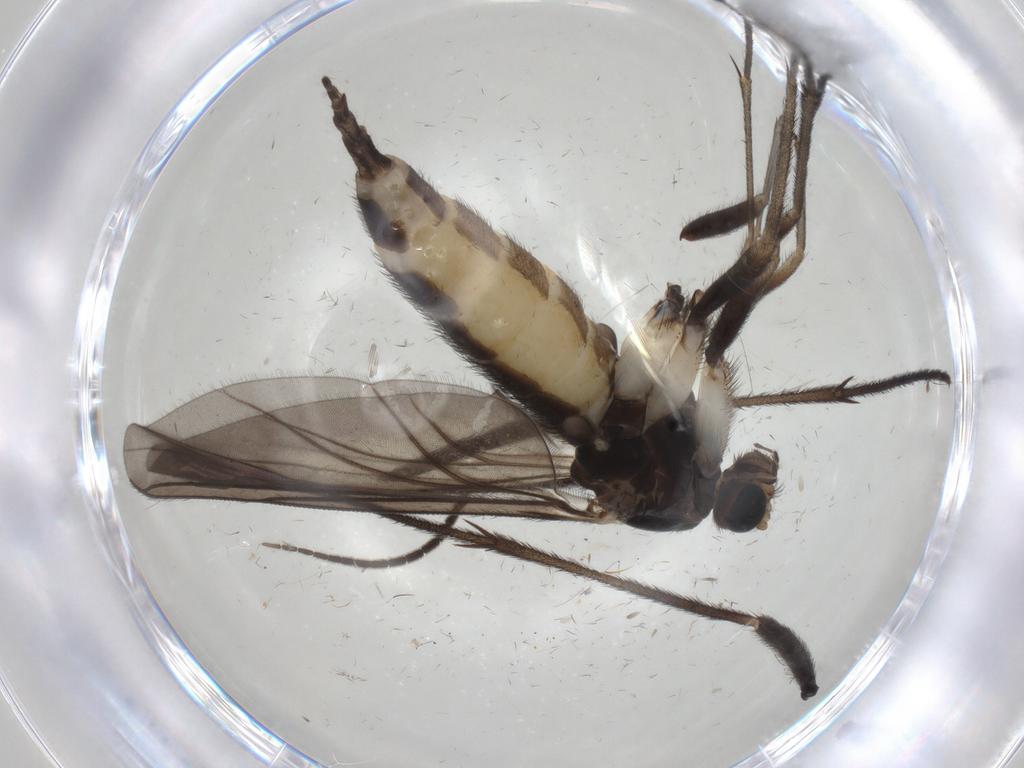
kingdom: Animalia
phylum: Arthropoda
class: Insecta
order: Diptera
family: Sciaridae
